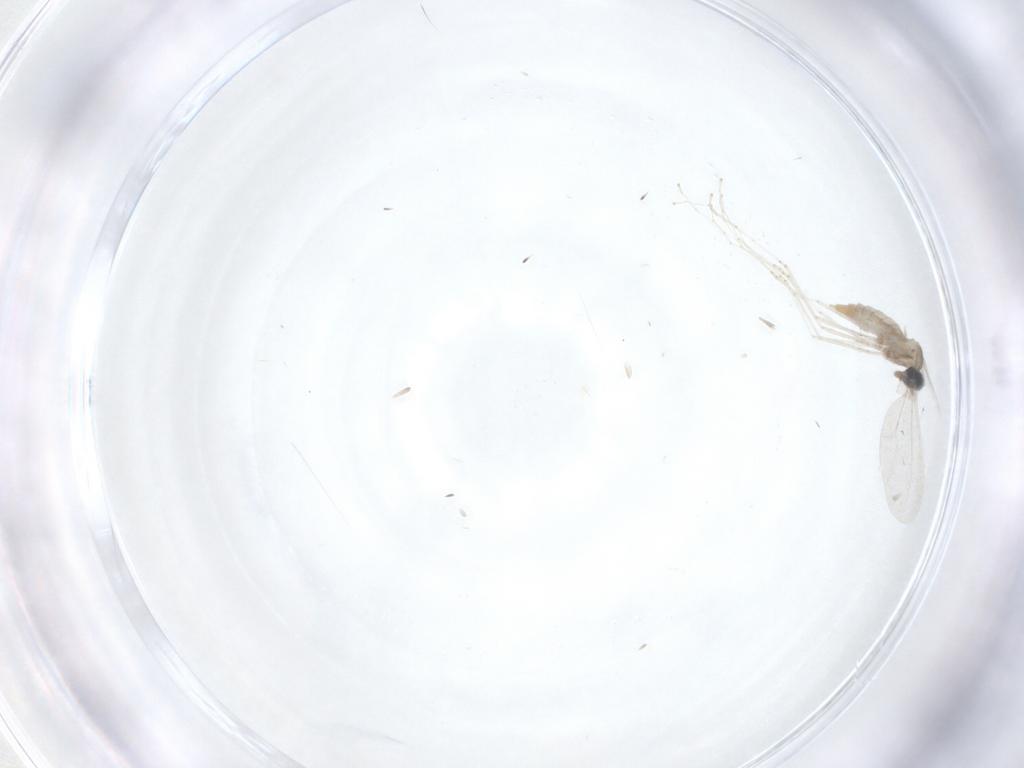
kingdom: Animalia
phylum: Arthropoda
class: Insecta
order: Diptera
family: Cecidomyiidae
